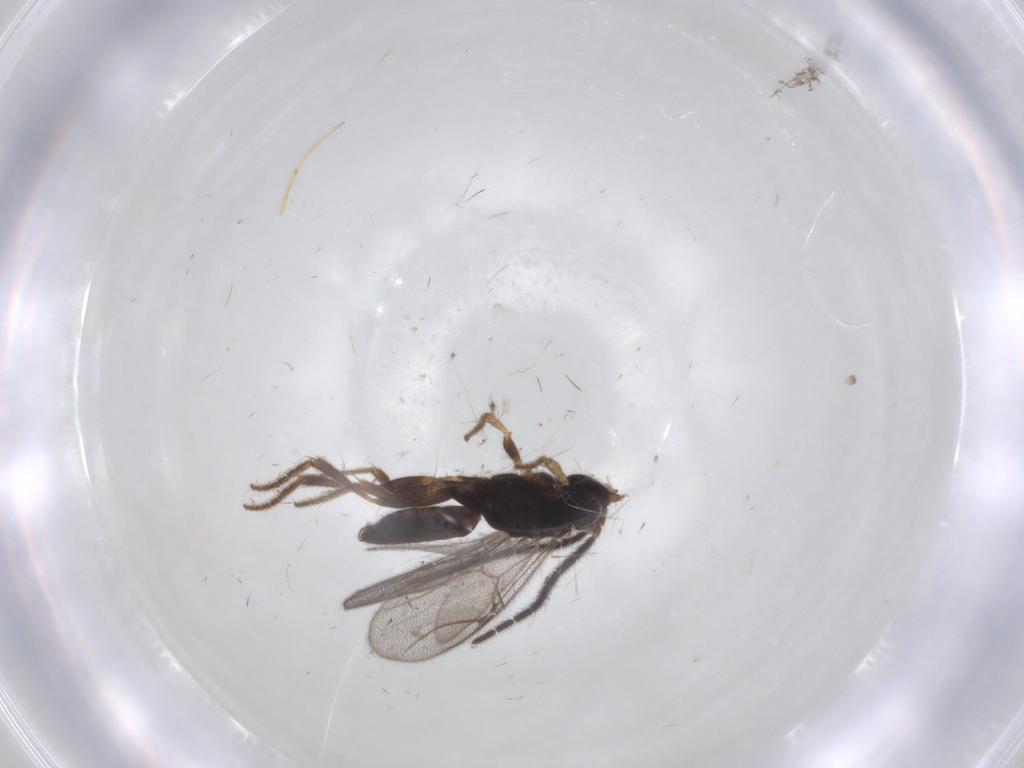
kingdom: Animalia
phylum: Arthropoda
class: Insecta
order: Hymenoptera
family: Dryinidae
